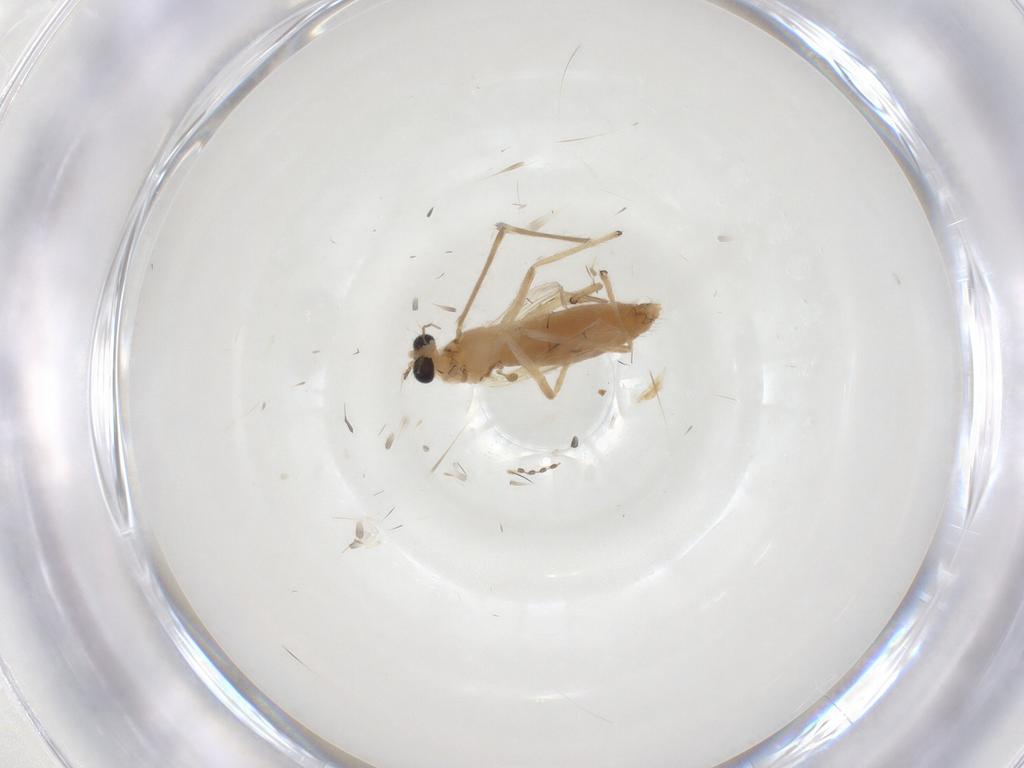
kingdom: Animalia
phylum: Arthropoda
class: Insecta
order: Diptera
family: Chironomidae
